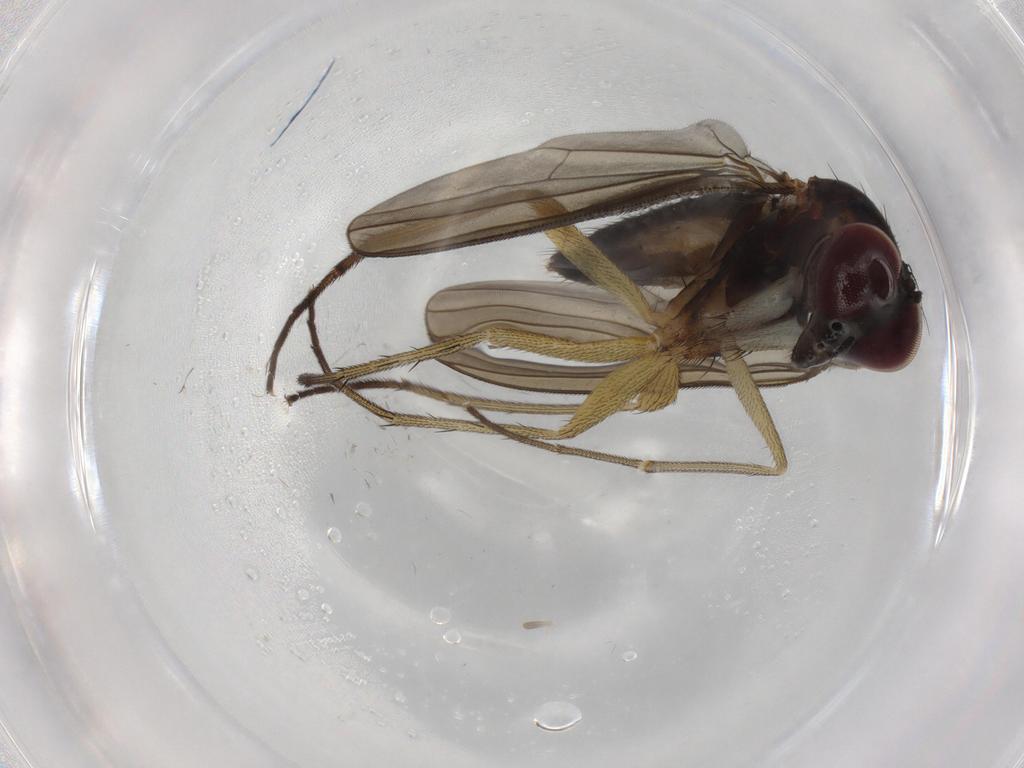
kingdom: Animalia
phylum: Arthropoda
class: Insecta
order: Diptera
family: Dolichopodidae
